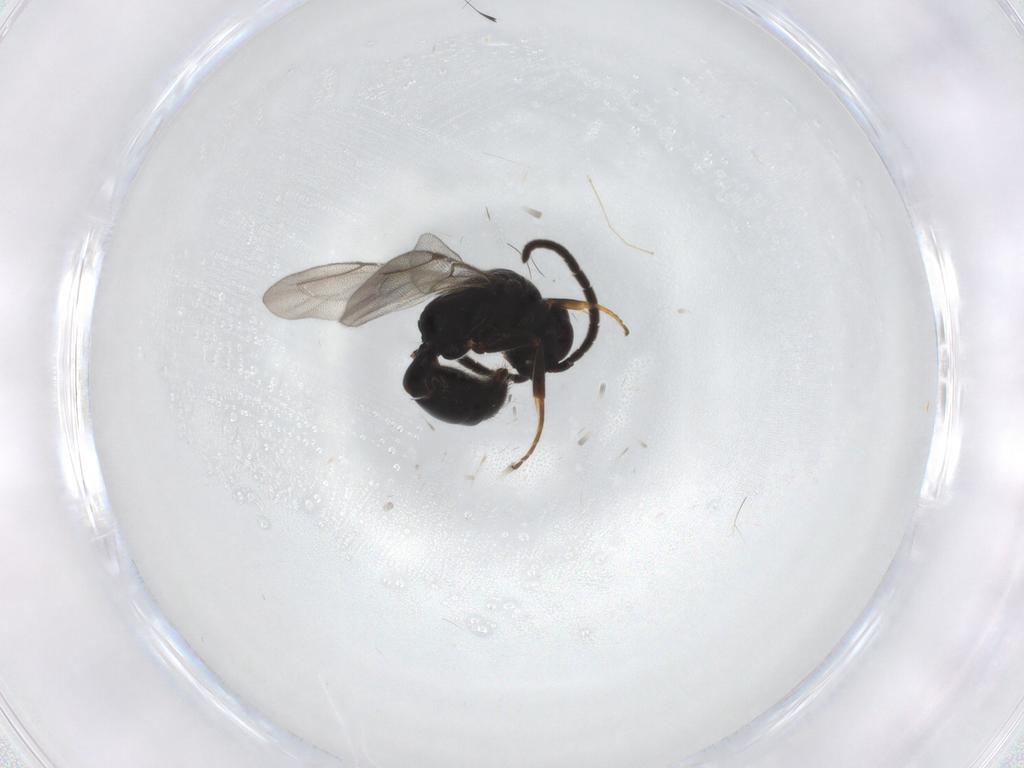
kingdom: Animalia
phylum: Arthropoda
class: Insecta
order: Hymenoptera
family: Bethylidae
